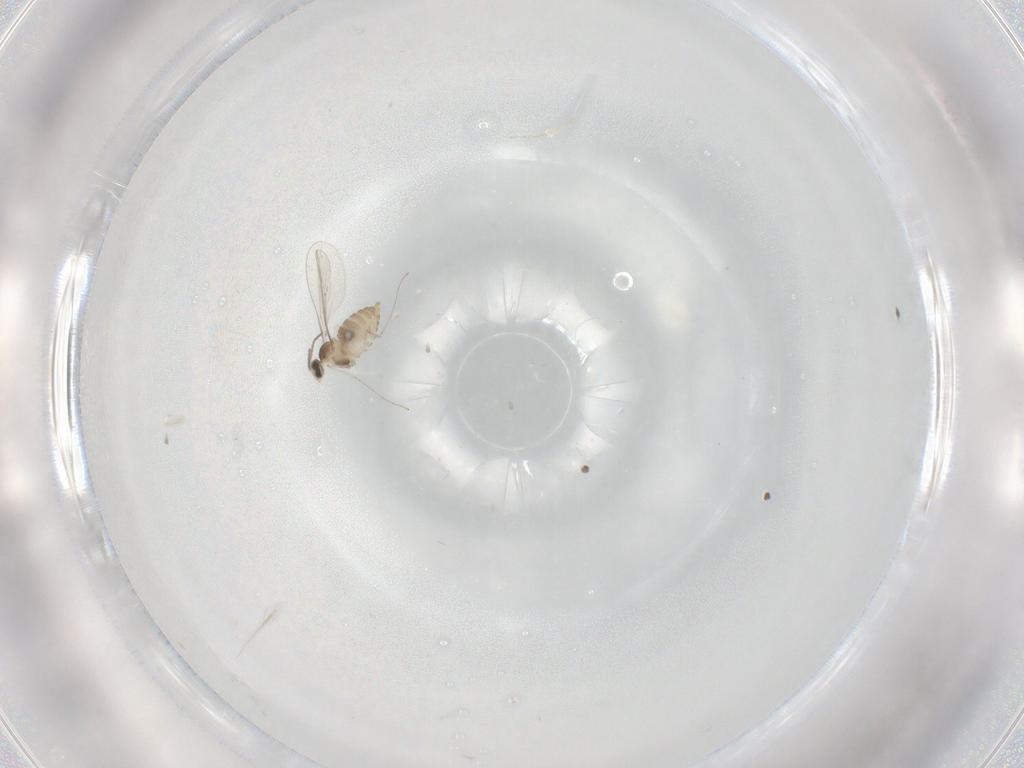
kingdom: Animalia
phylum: Arthropoda
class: Insecta
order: Diptera
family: Cecidomyiidae
